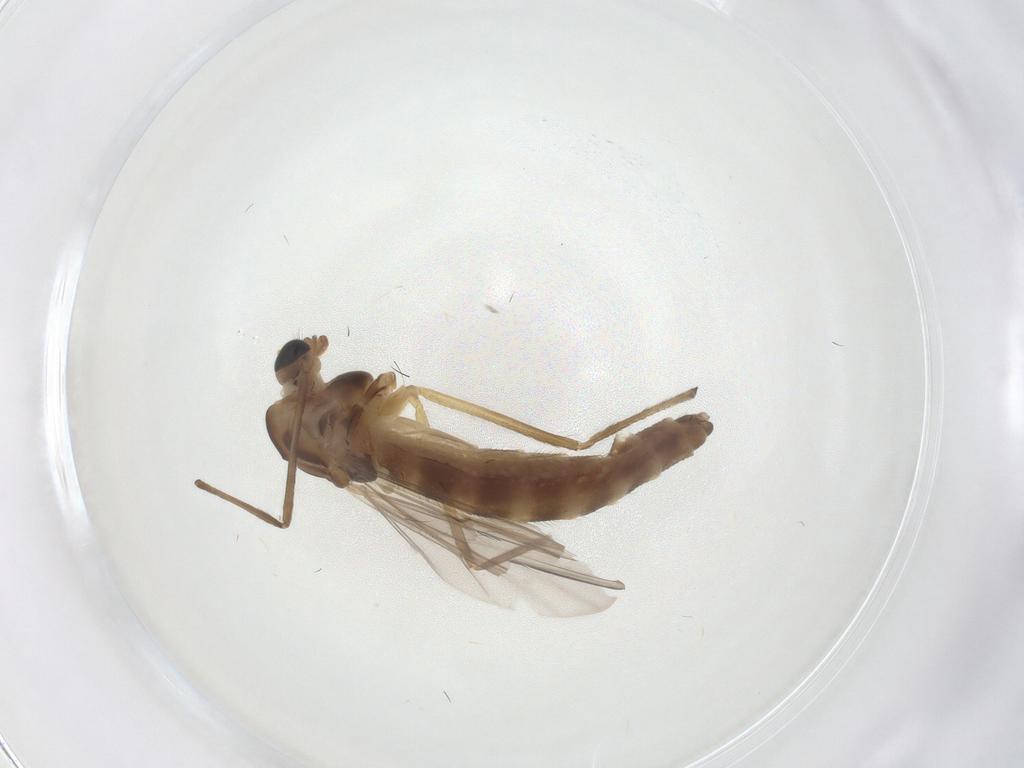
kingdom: Animalia
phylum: Arthropoda
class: Insecta
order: Diptera
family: Chironomidae
